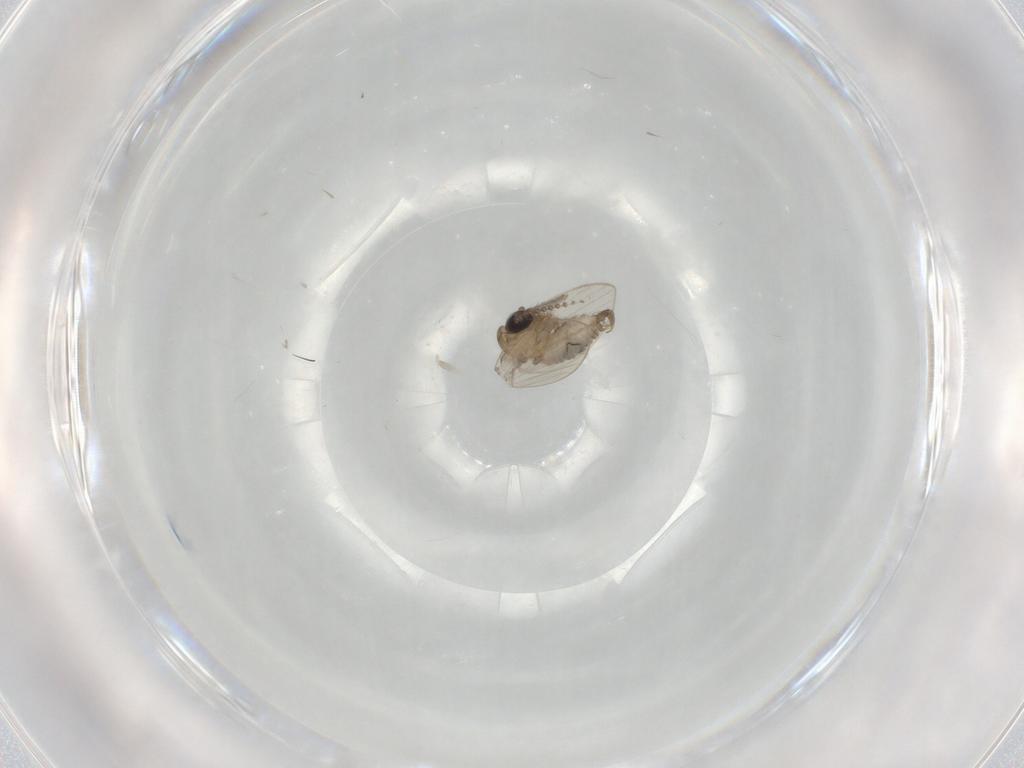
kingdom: Animalia
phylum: Arthropoda
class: Insecta
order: Diptera
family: Psychodidae
